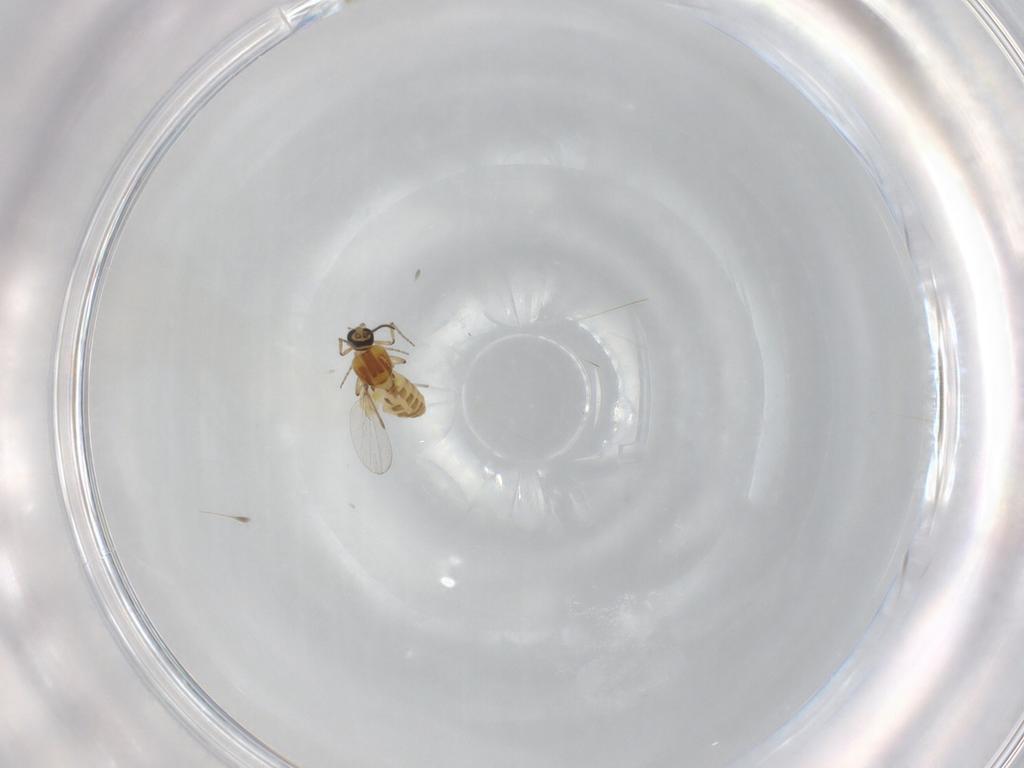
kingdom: Animalia
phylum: Arthropoda
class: Insecta
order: Diptera
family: Ceratopogonidae
